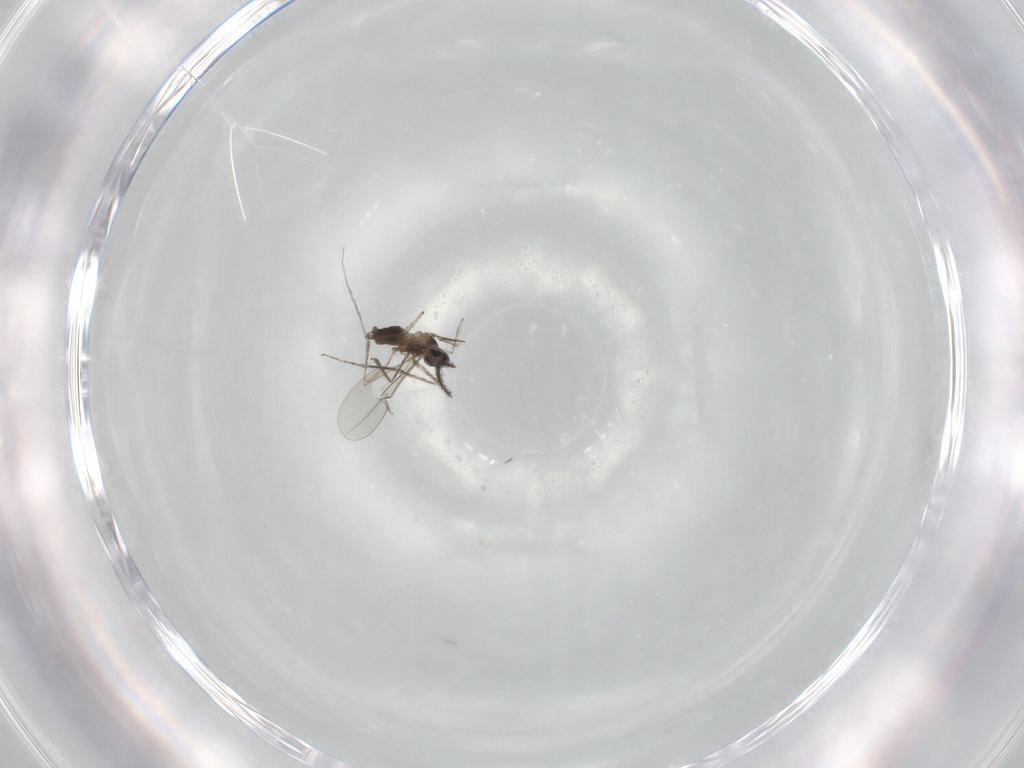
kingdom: Animalia
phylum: Arthropoda
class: Insecta
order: Diptera
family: Cecidomyiidae
